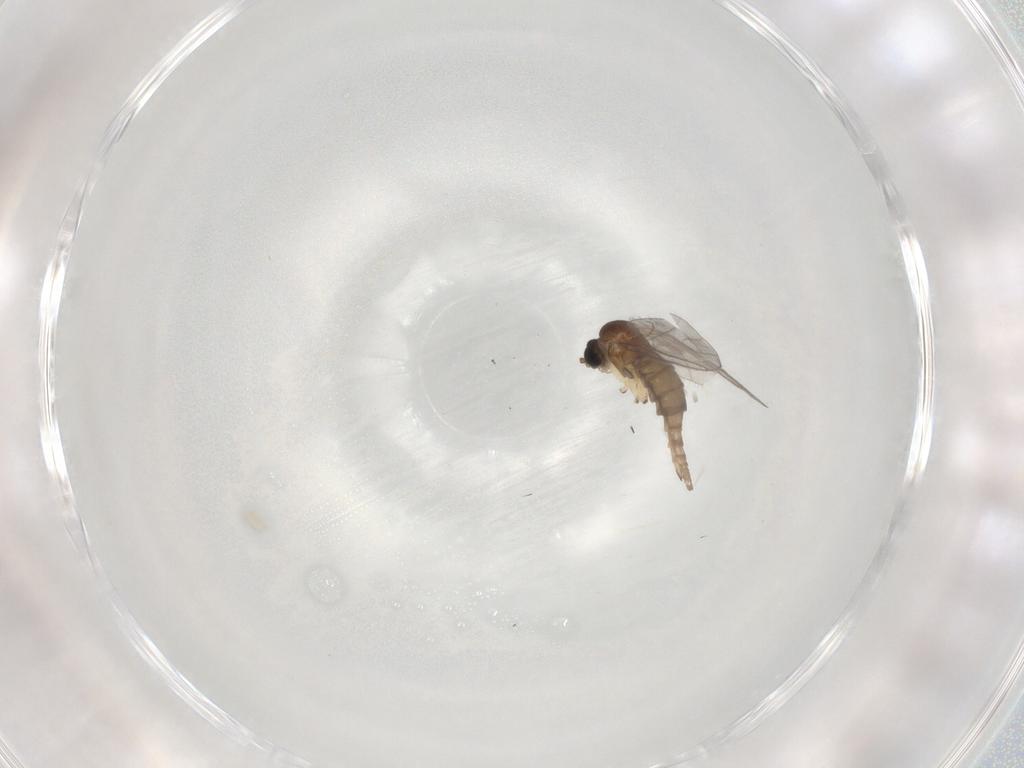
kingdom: Animalia
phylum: Arthropoda
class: Insecta
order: Diptera
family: Sciaridae
